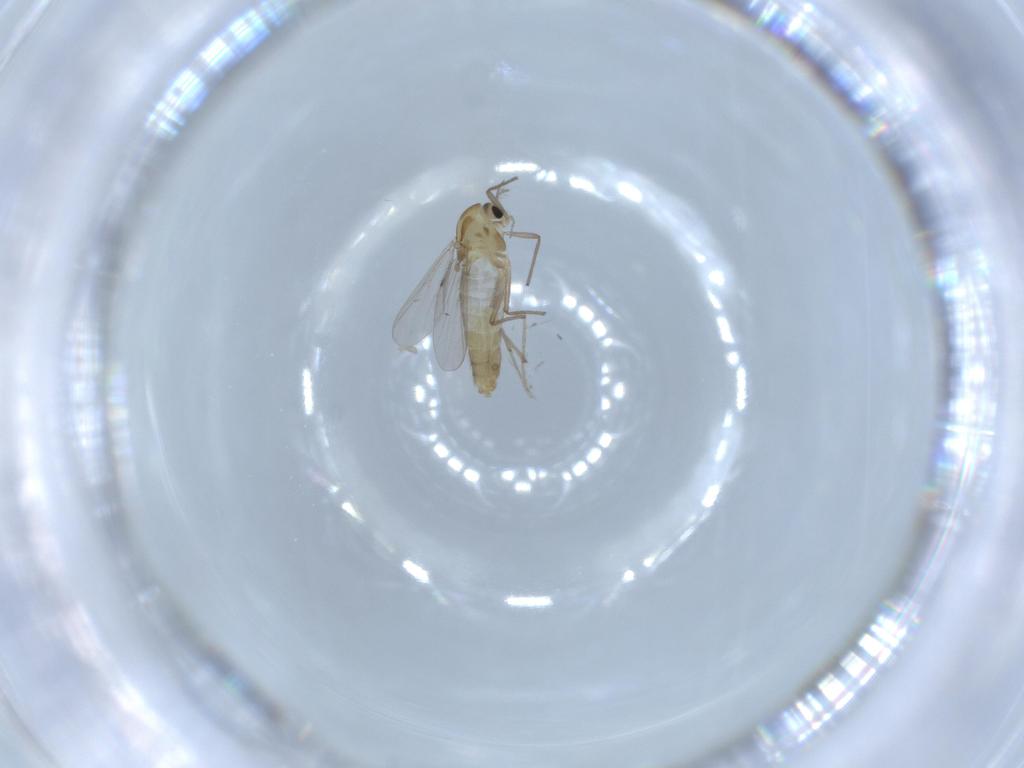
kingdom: Animalia
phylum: Arthropoda
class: Insecta
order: Diptera
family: Chironomidae
